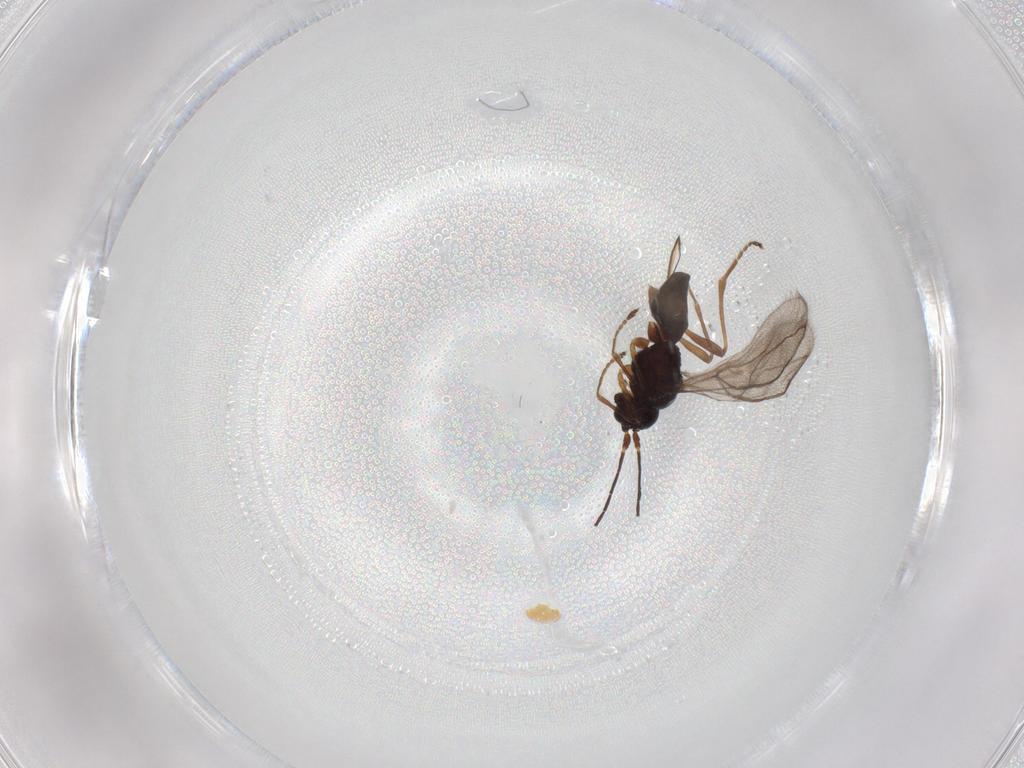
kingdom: Animalia
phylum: Arthropoda
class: Insecta
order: Hymenoptera
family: Braconidae
